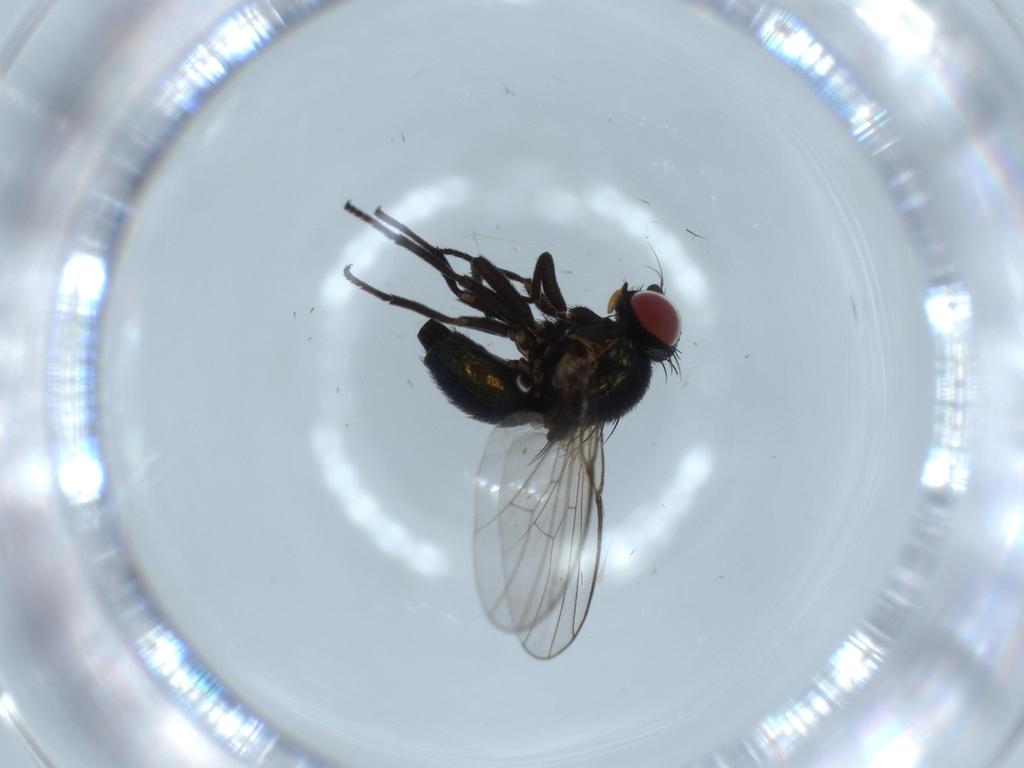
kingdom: Animalia
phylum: Arthropoda
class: Insecta
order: Diptera
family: Agromyzidae
